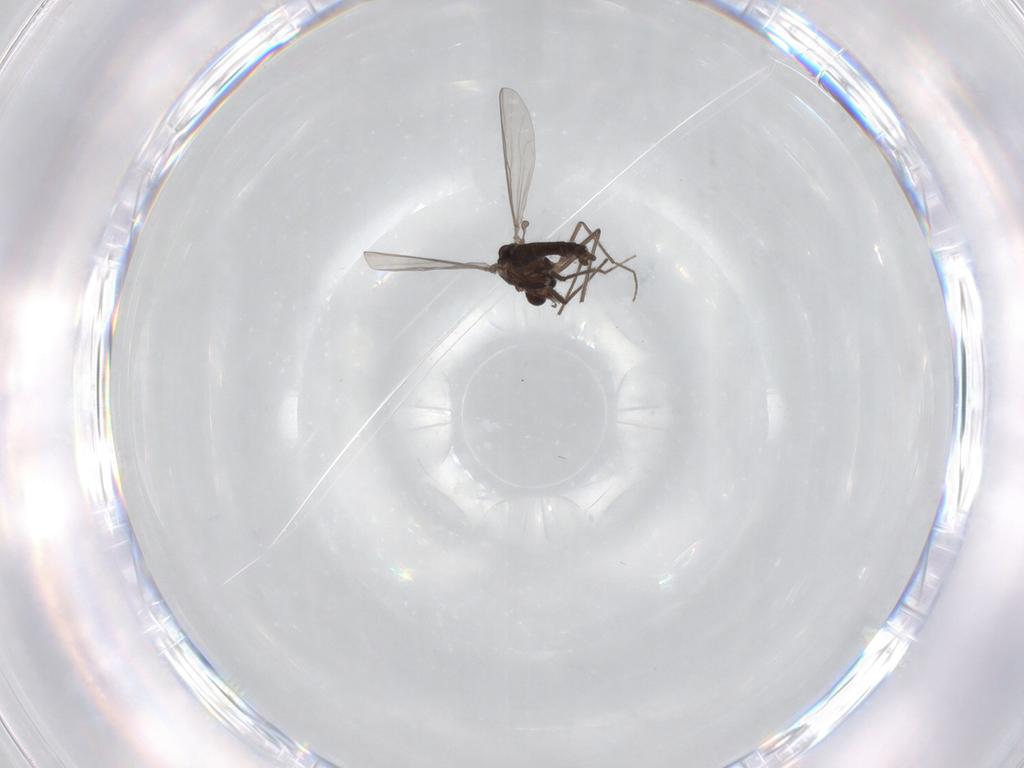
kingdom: Animalia
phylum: Arthropoda
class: Insecta
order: Diptera
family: Chironomidae
